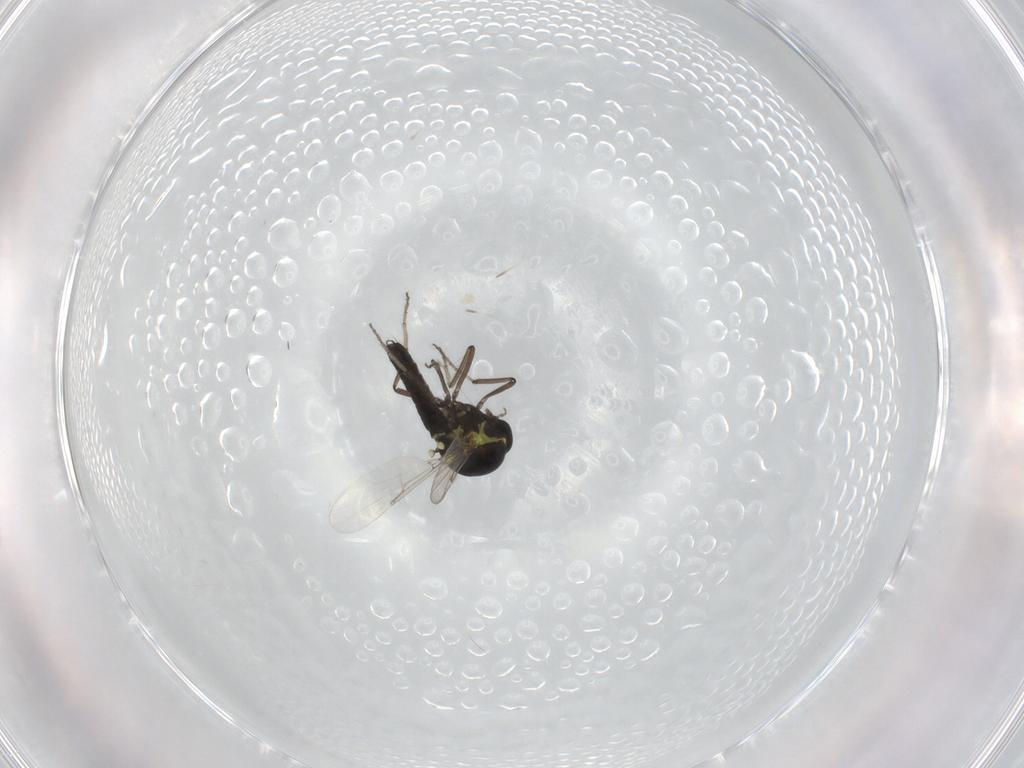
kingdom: Animalia
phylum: Arthropoda
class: Insecta
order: Diptera
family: Ceratopogonidae
